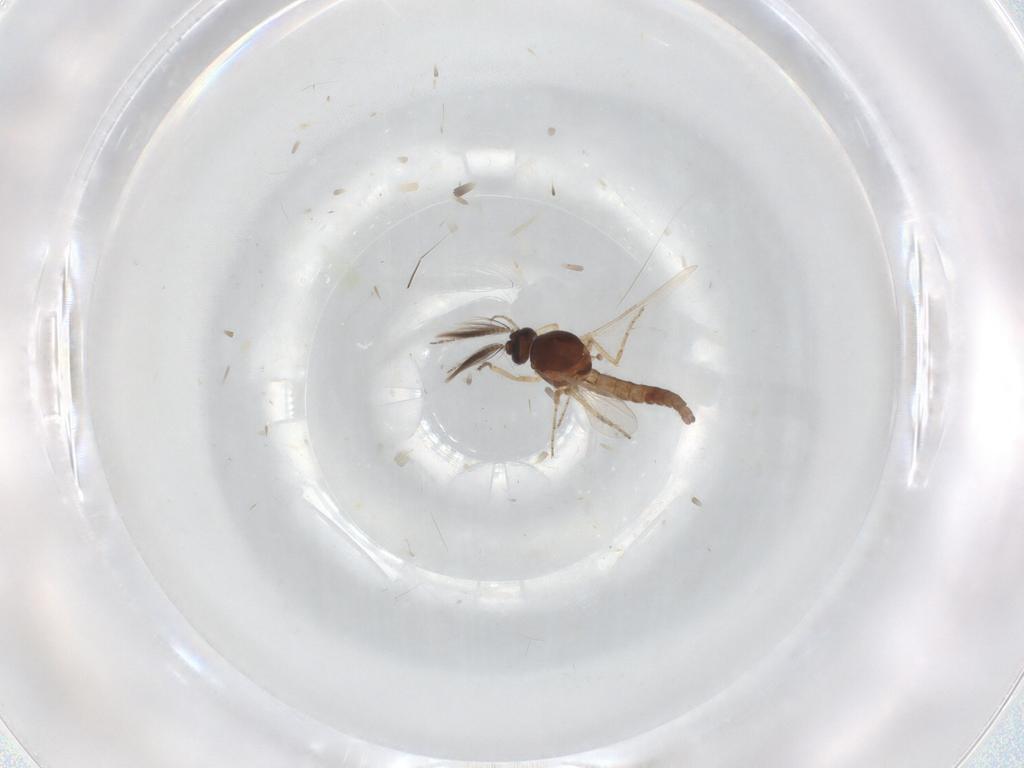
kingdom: Animalia
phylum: Arthropoda
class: Insecta
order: Diptera
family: Ceratopogonidae
